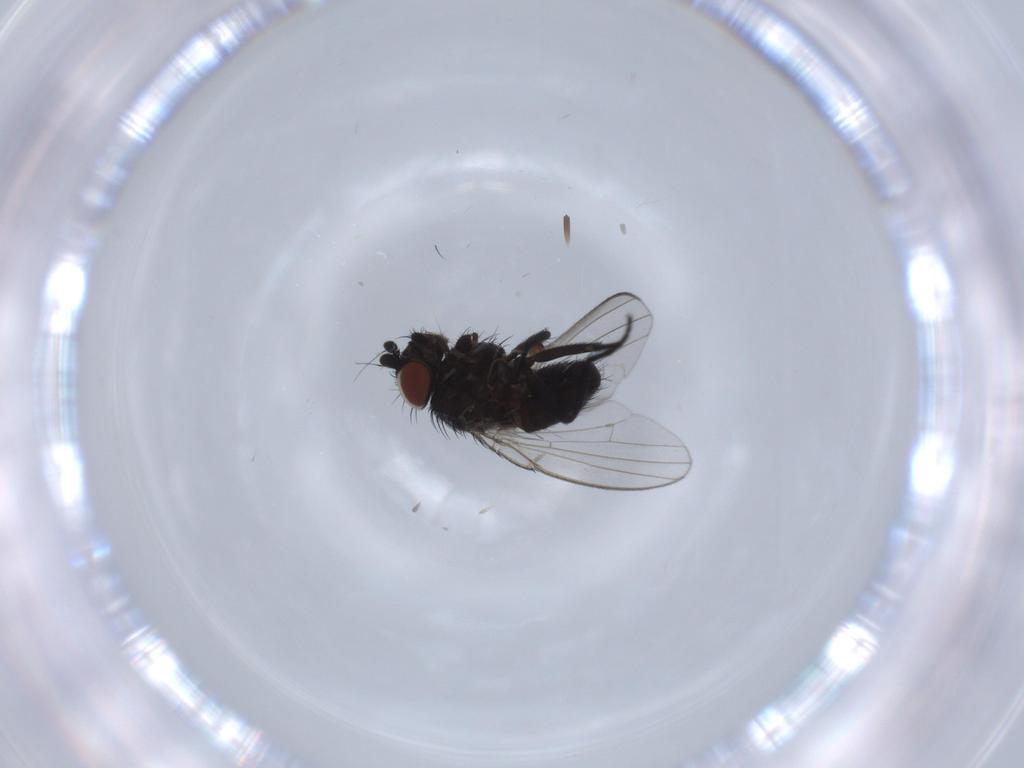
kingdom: Animalia
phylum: Arthropoda
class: Insecta
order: Diptera
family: Milichiidae
